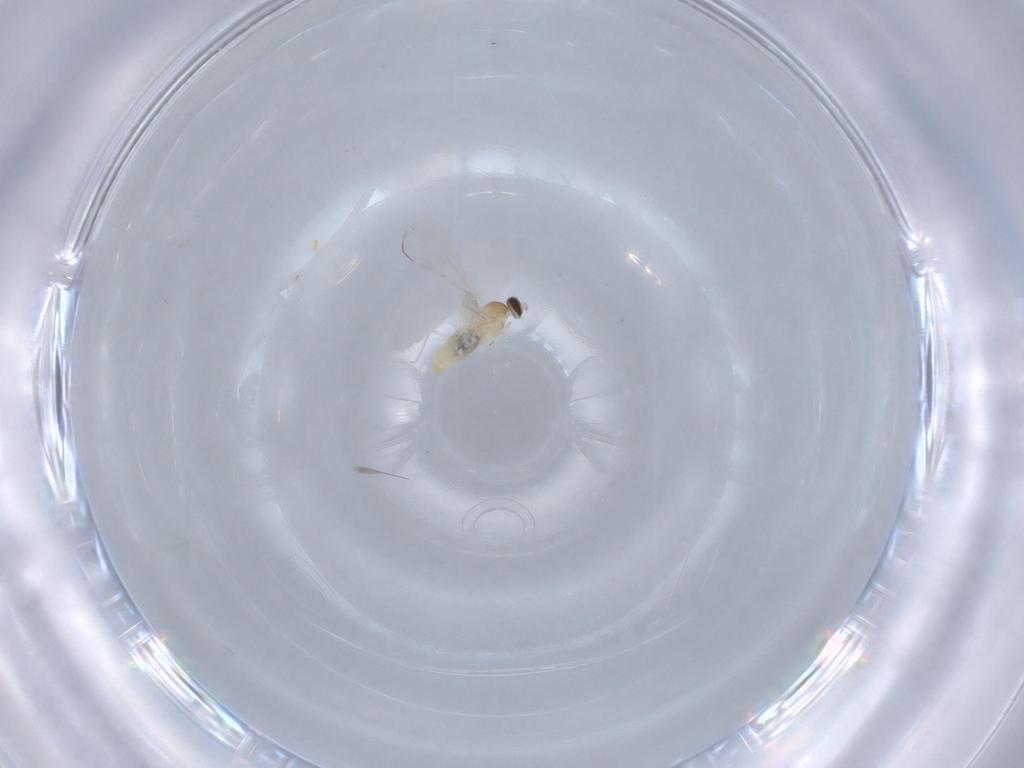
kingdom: Animalia
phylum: Arthropoda
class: Insecta
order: Diptera
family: Cecidomyiidae
